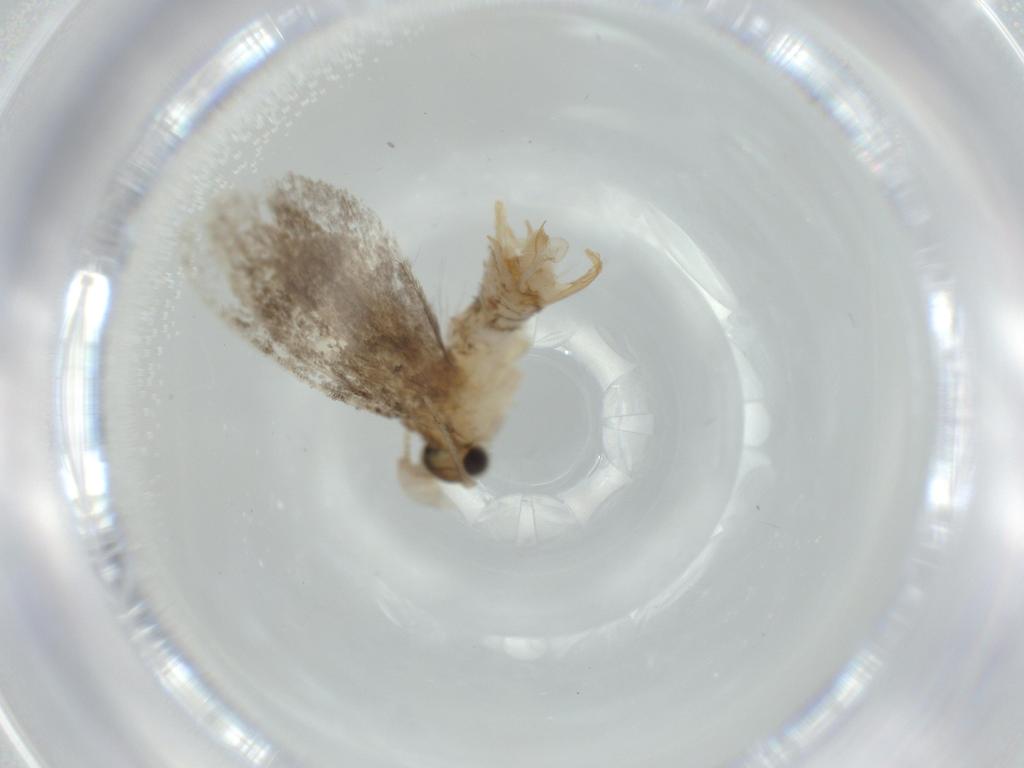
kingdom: Animalia
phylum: Arthropoda
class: Insecta
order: Lepidoptera
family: Tineidae
